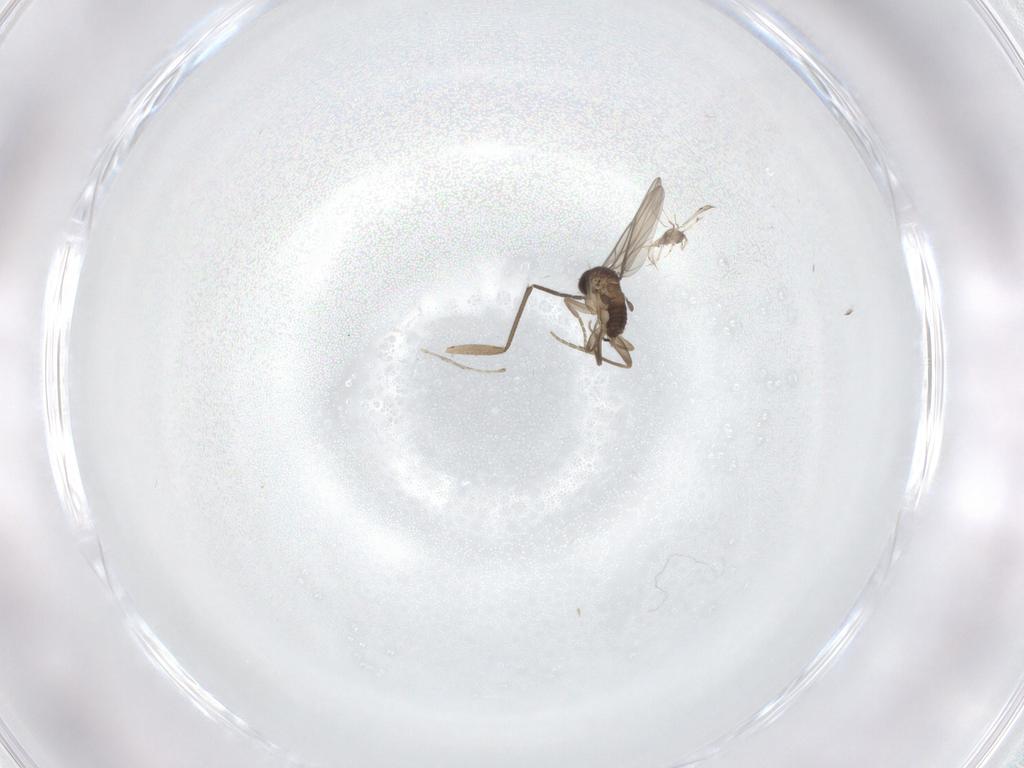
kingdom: Animalia
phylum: Arthropoda
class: Insecta
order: Diptera
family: Sciaridae
